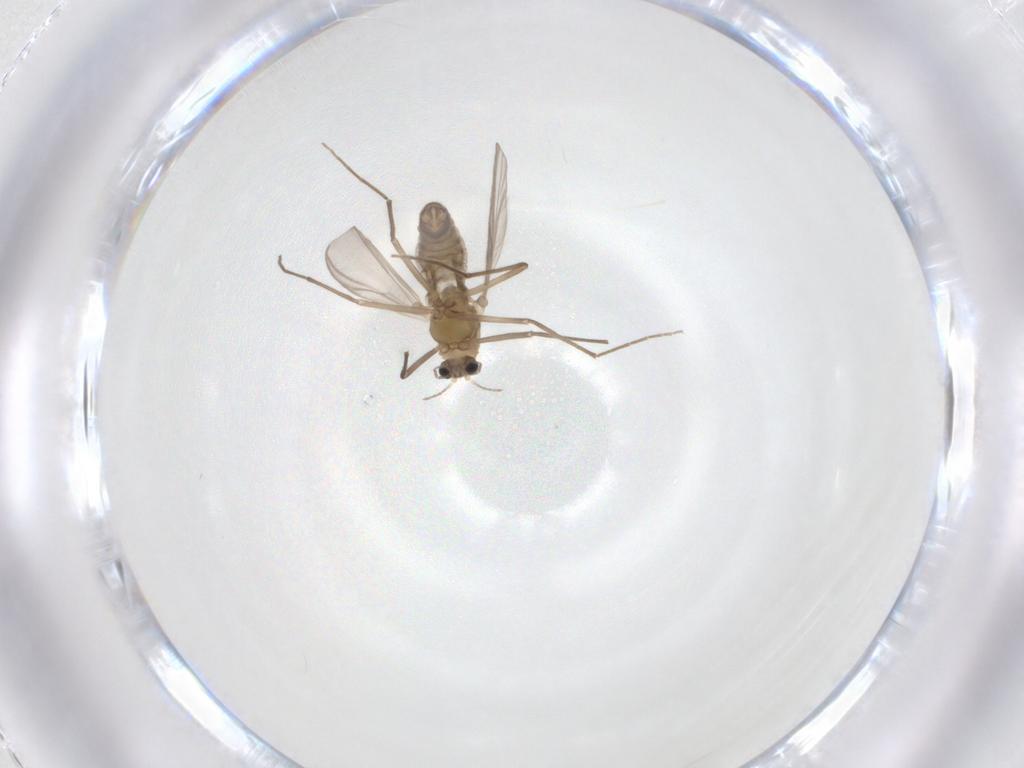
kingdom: Animalia
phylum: Arthropoda
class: Insecta
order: Diptera
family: Chironomidae
